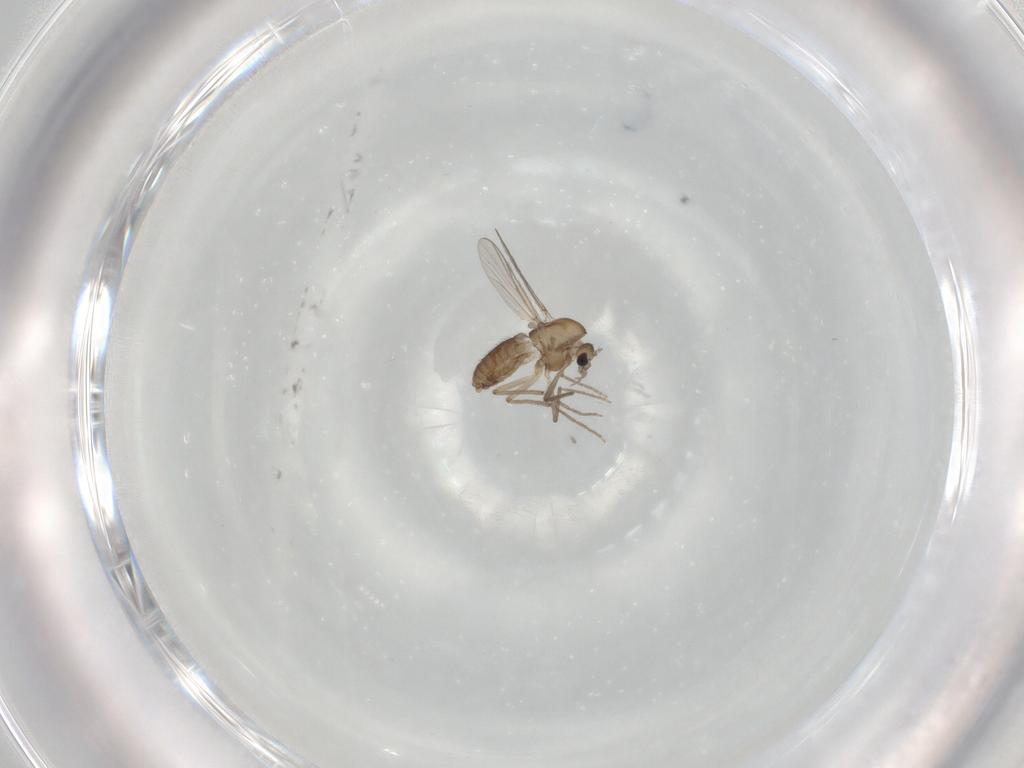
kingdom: Animalia
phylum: Arthropoda
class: Insecta
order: Diptera
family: Chironomidae
